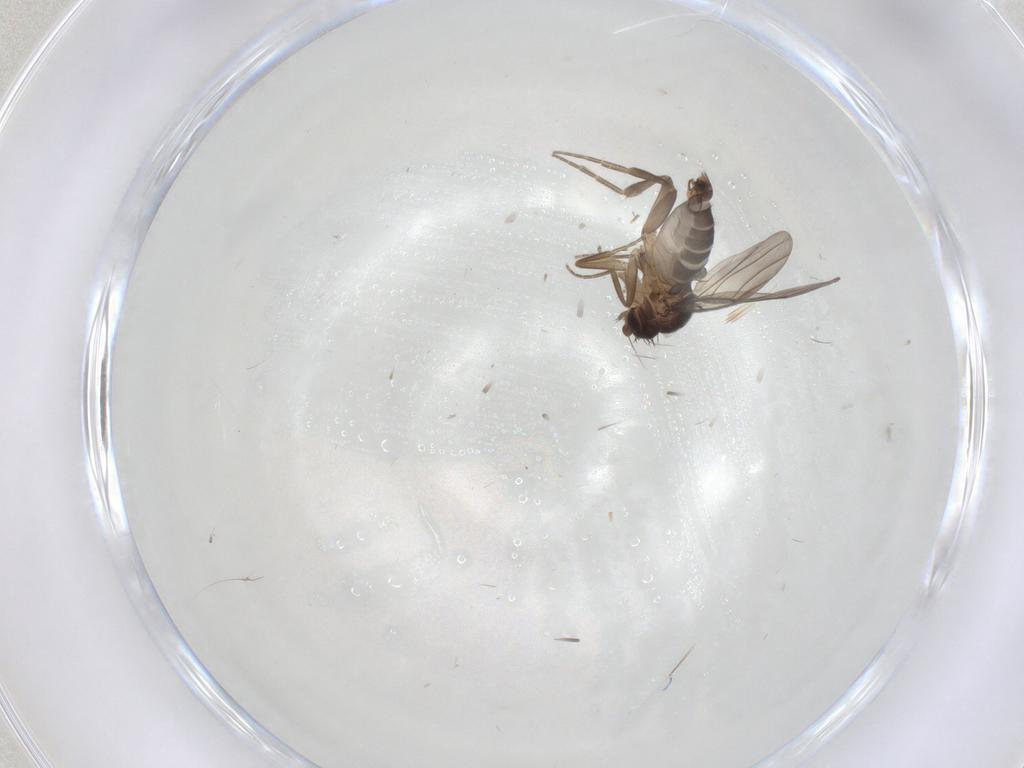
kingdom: Animalia
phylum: Arthropoda
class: Insecta
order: Diptera
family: Phoridae
